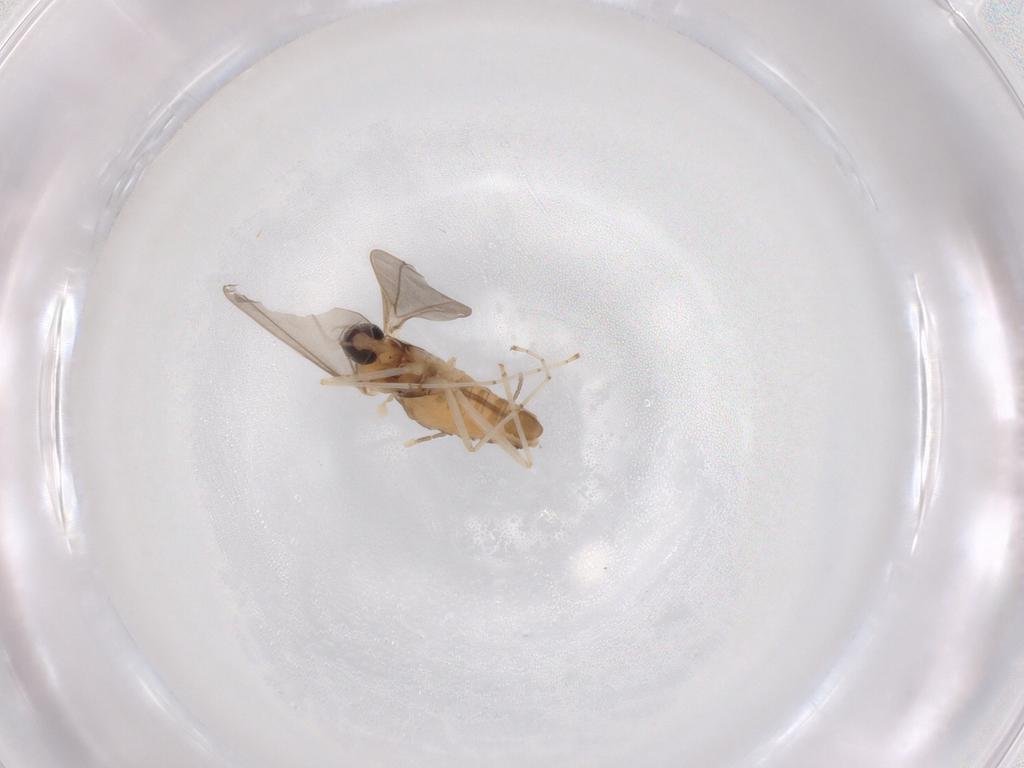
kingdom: Animalia
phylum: Arthropoda
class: Insecta
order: Diptera
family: Cecidomyiidae
